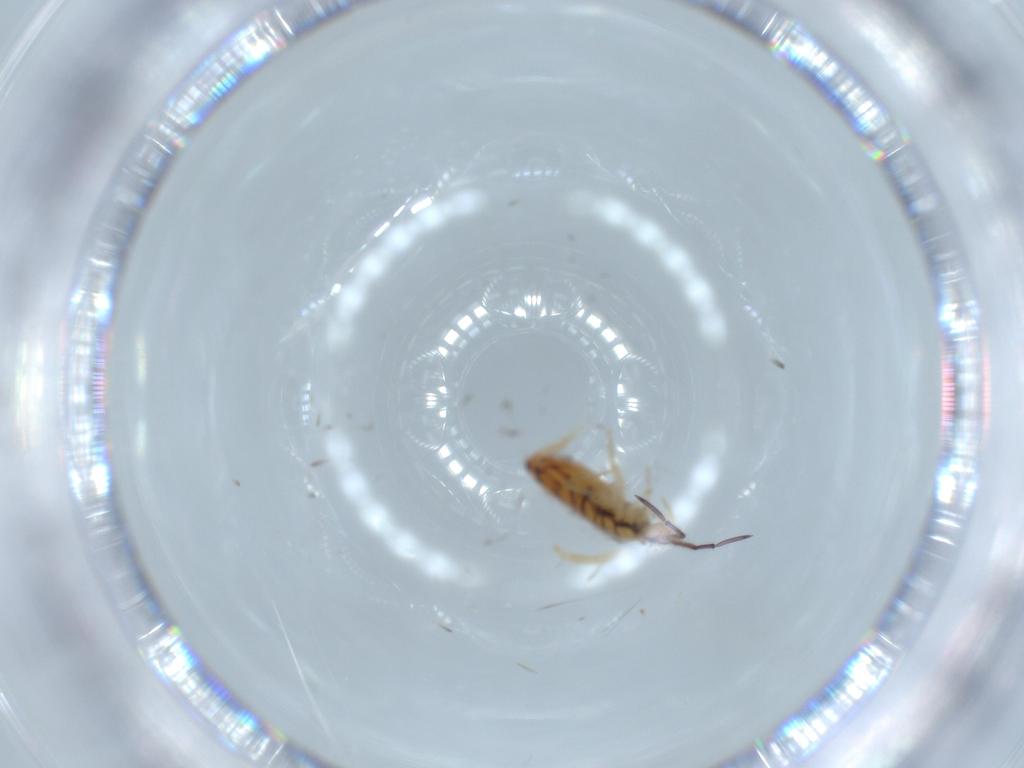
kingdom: Animalia
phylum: Arthropoda
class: Collembola
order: Entomobryomorpha
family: Entomobryidae
